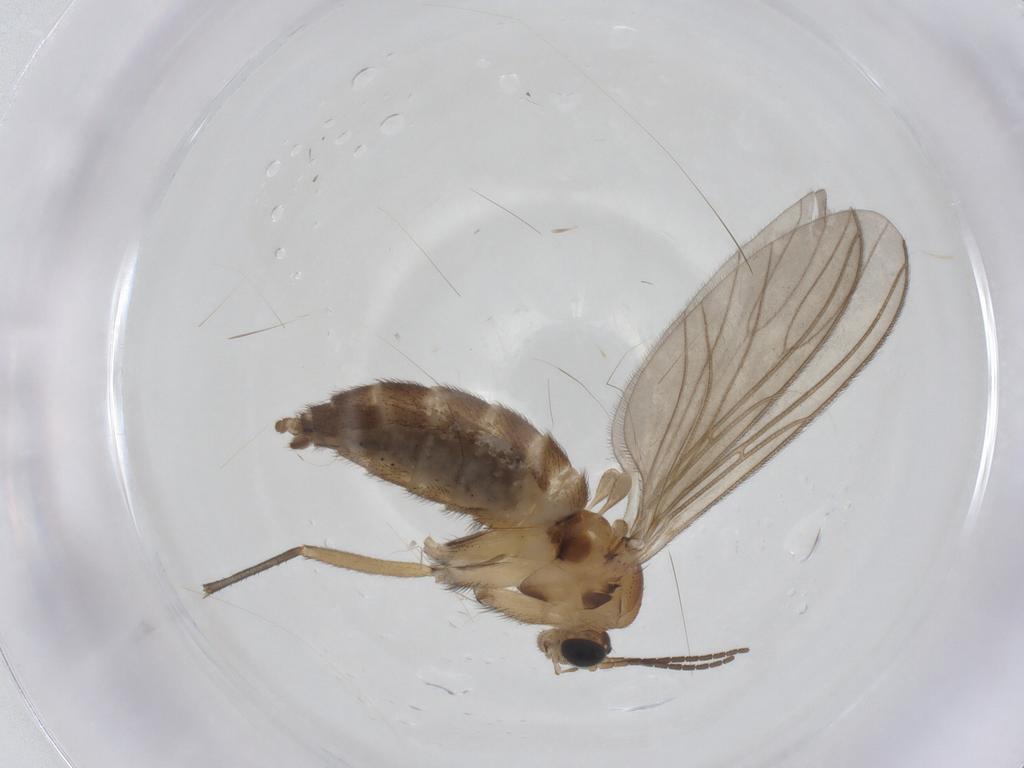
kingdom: Animalia
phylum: Arthropoda
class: Insecta
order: Diptera
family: Sciaridae
